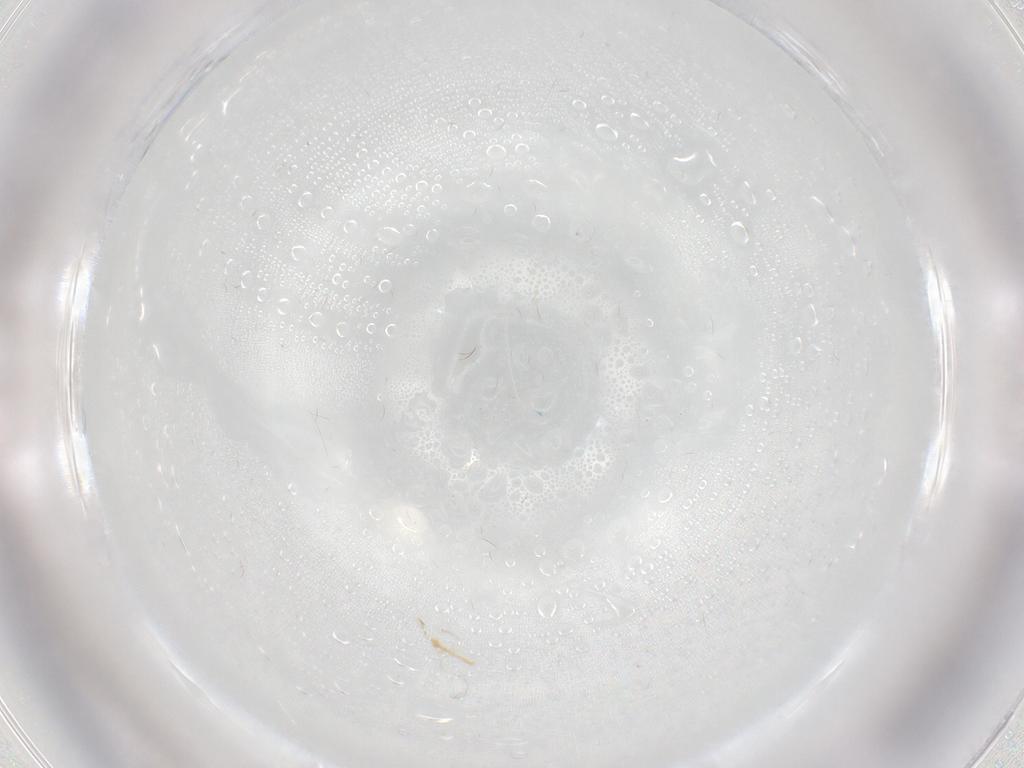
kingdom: Animalia
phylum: Arthropoda
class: Insecta
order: Diptera
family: Chironomidae
